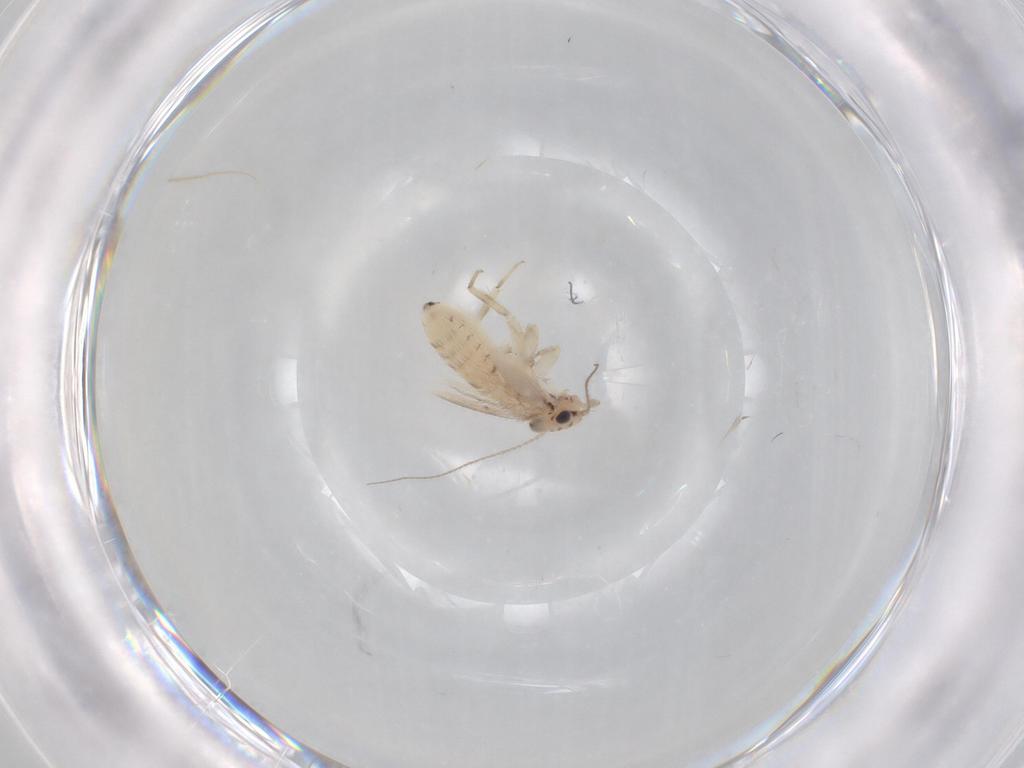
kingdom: Animalia
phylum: Arthropoda
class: Insecta
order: Psocodea
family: Lepidopsocidae
